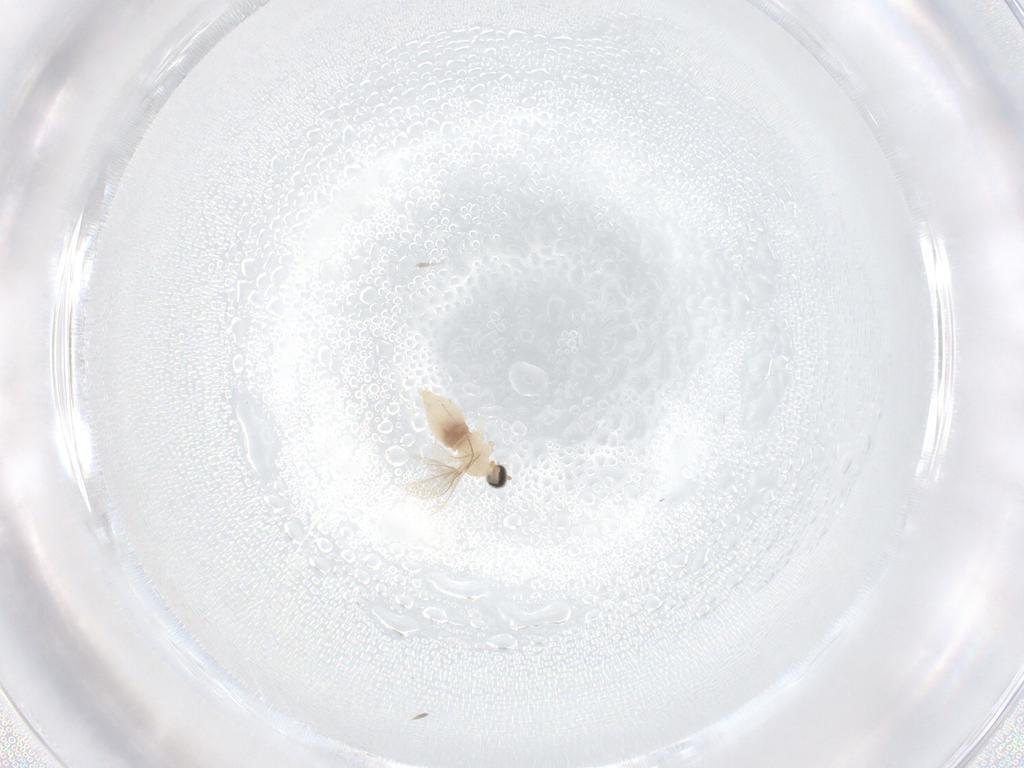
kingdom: Animalia
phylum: Arthropoda
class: Insecta
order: Diptera
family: Cecidomyiidae
